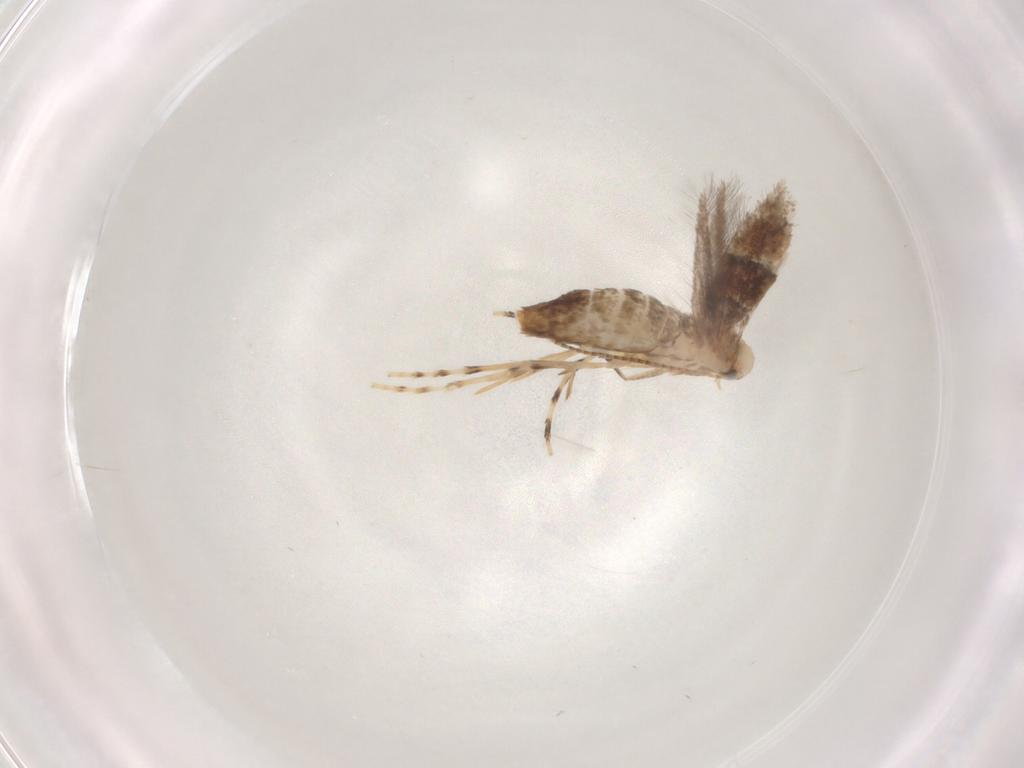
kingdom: Animalia
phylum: Arthropoda
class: Insecta
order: Lepidoptera
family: Gracillariidae
